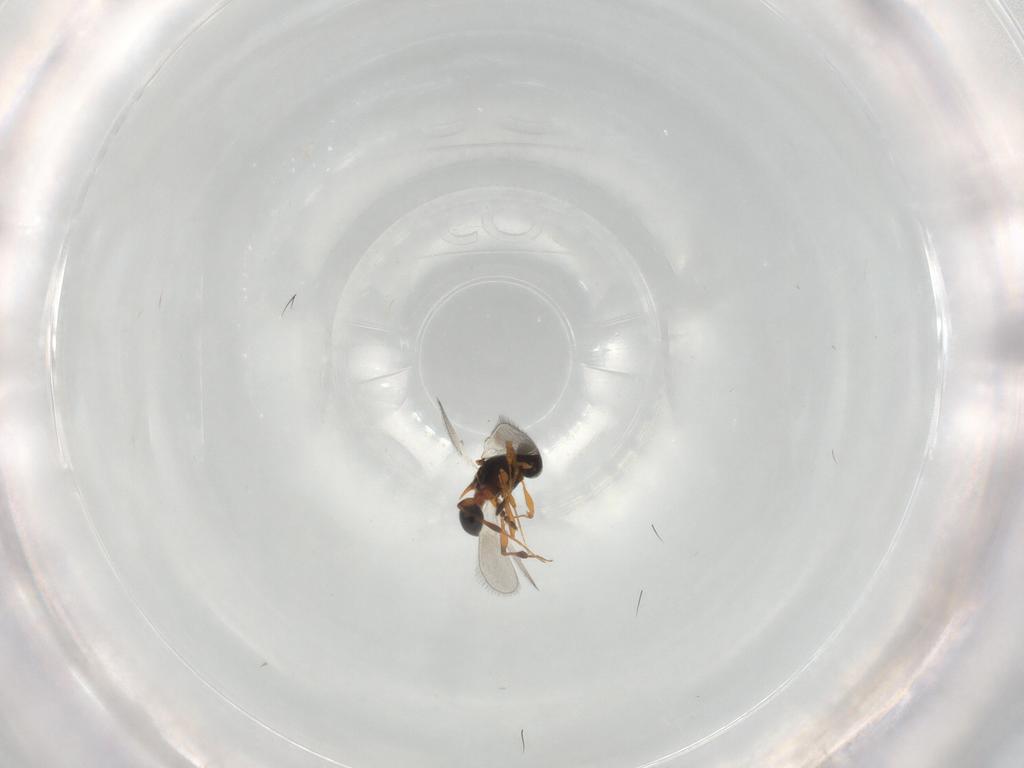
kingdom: Animalia
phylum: Arthropoda
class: Insecta
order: Hymenoptera
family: Platygastridae
